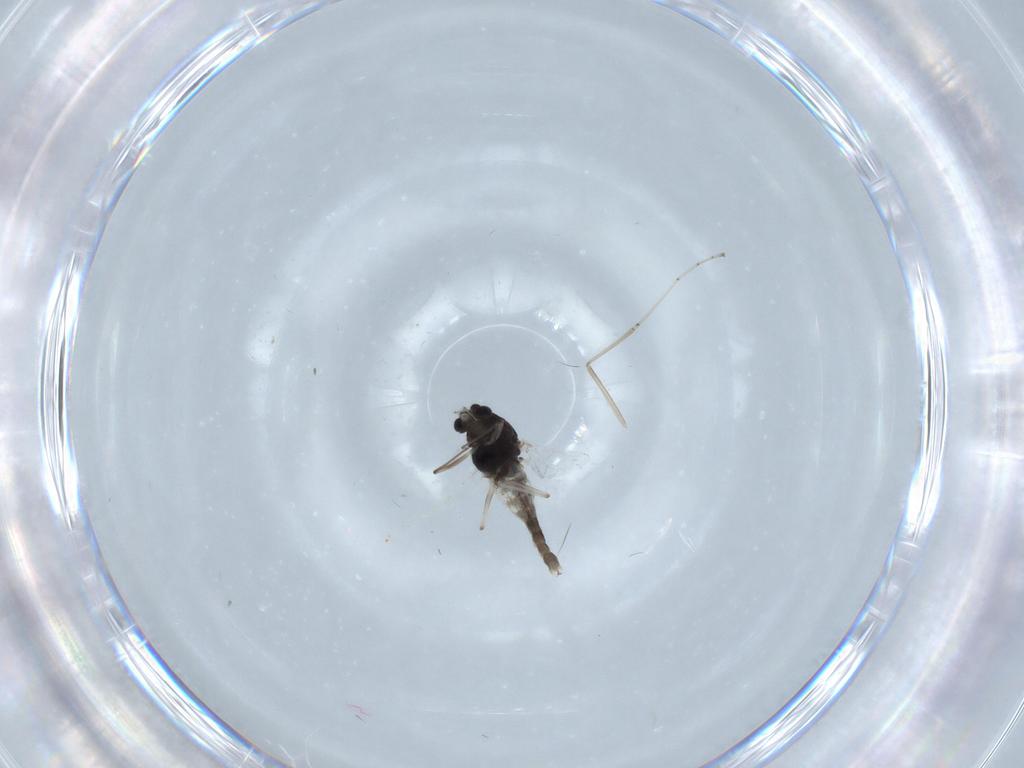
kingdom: Animalia
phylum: Arthropoda
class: Insecta
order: Diptera
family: Chironomidae
